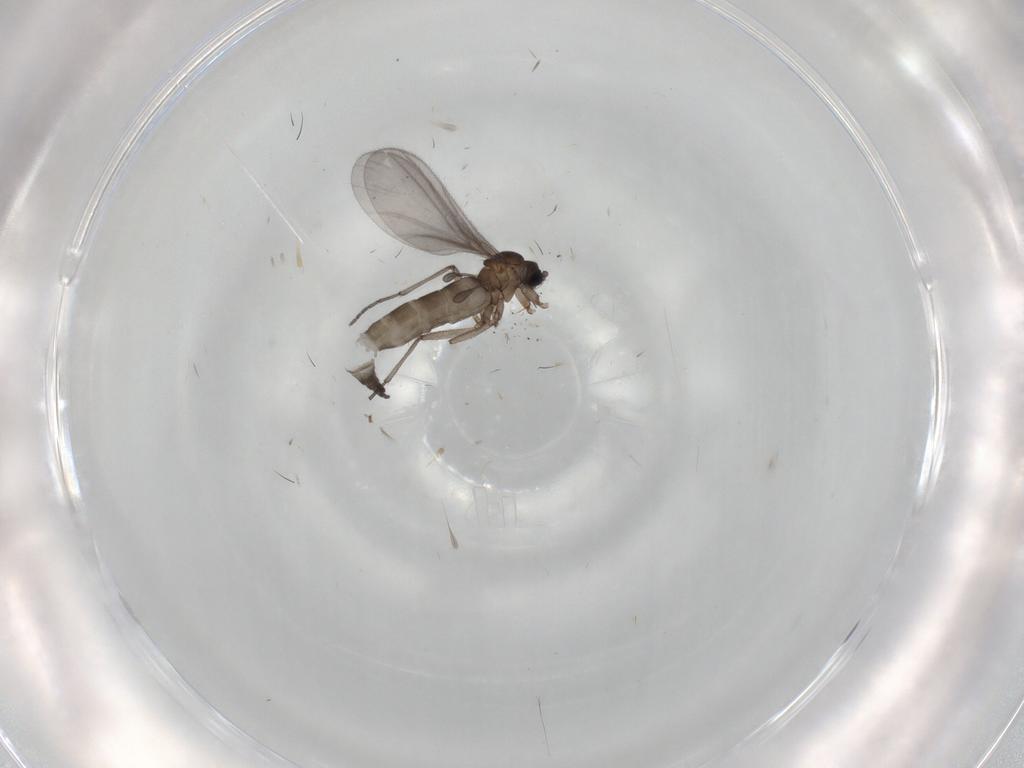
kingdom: Animalia
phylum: Arthropoda
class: Insecta
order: Diptera
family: Sciaridae
